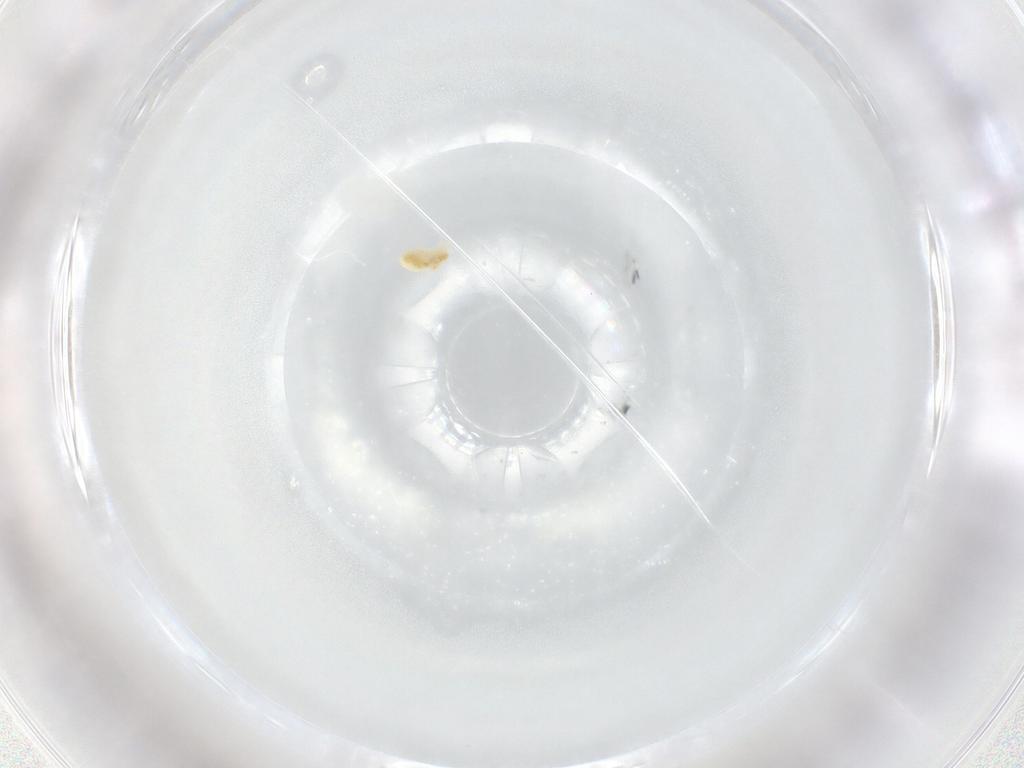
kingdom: Animalia
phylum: Arthropoda
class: Arachnida
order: Trombidiformes
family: Eupodidae
